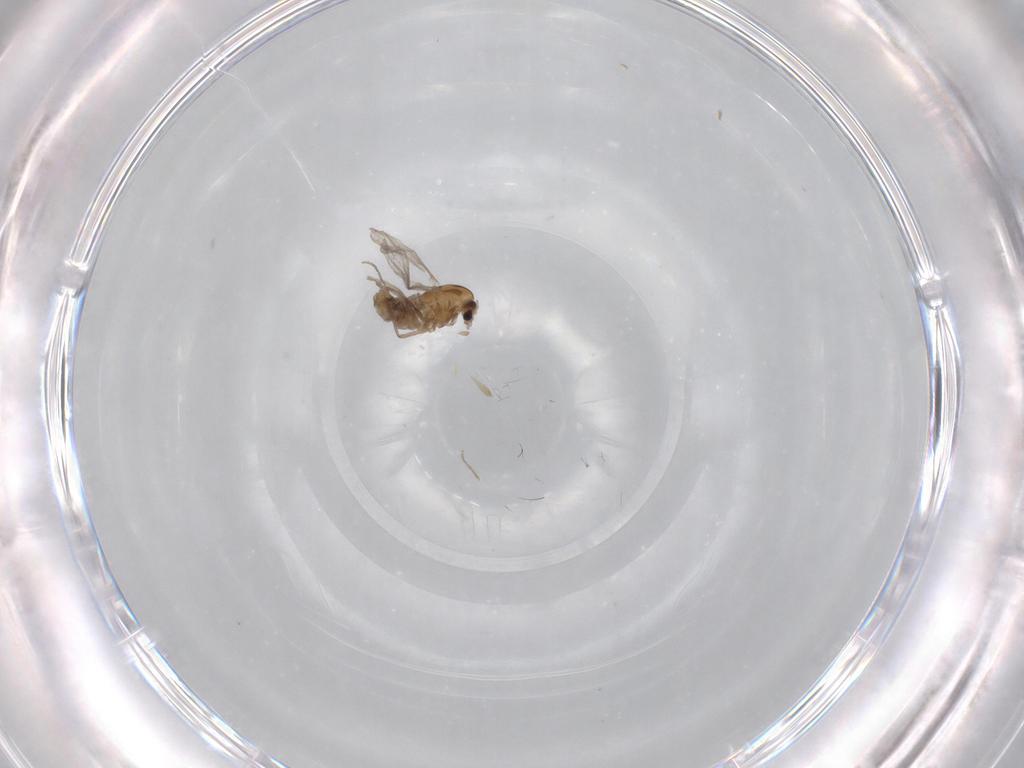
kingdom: Animalia
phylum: Arthropoda
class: Insecta
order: Diptera
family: Chironomidae
